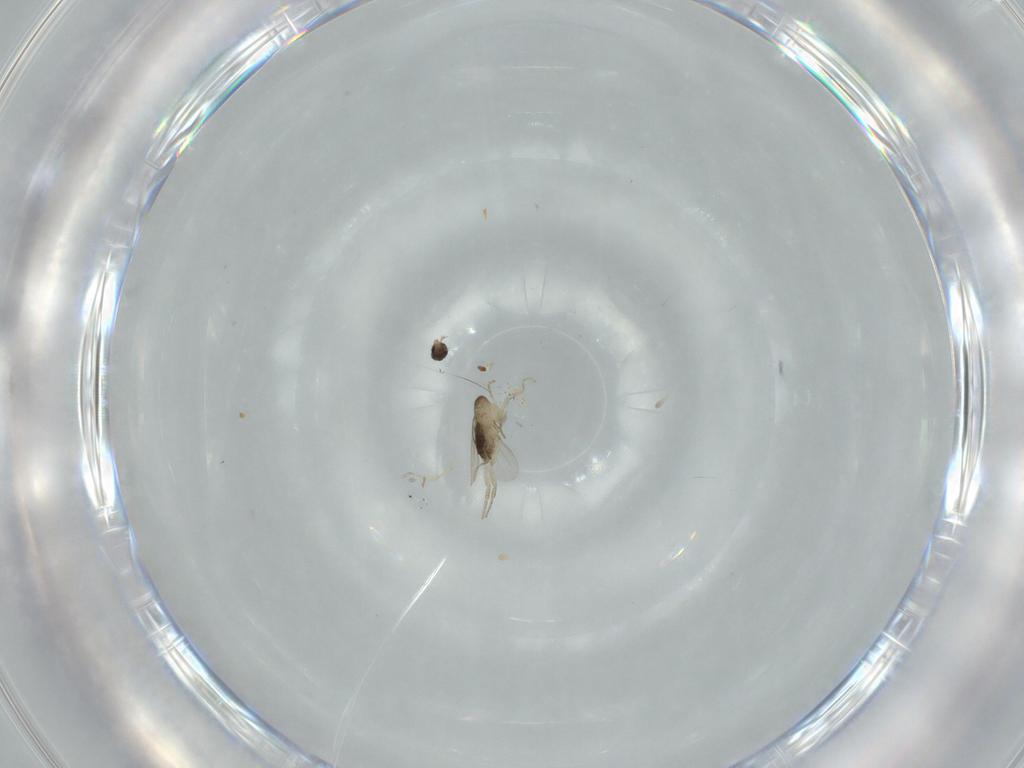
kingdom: Animalia
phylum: Arthropoda
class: Insecta
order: Diptera
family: Phoridae
